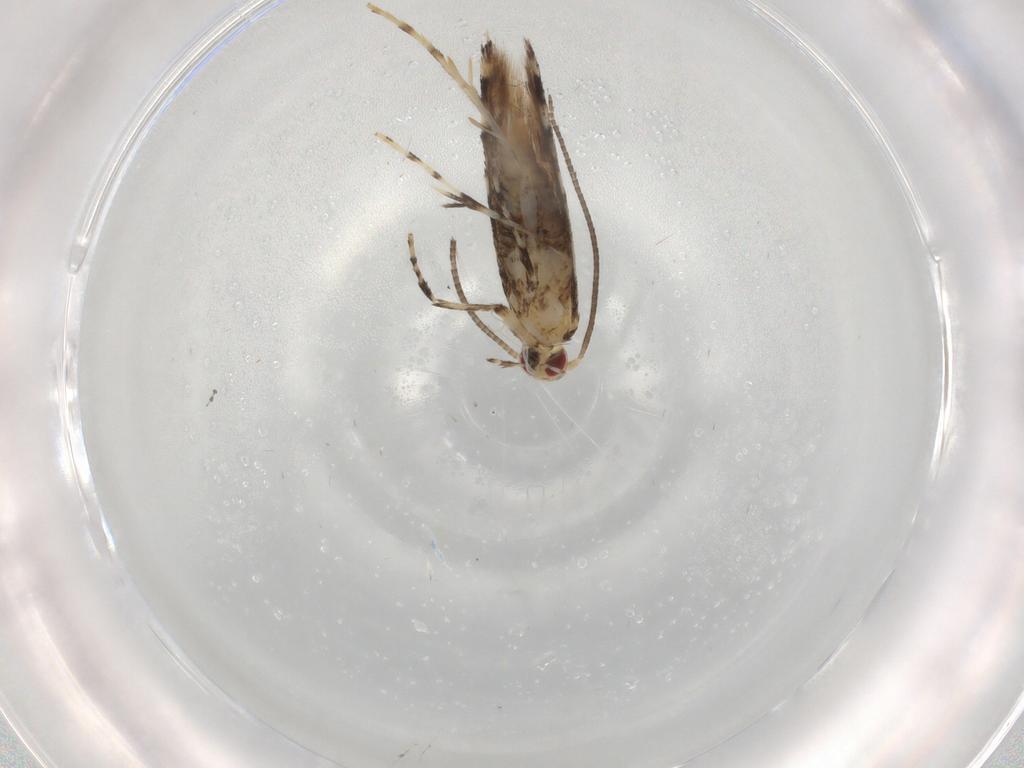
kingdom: Animalia
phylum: Arthropoda
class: Insecta
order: Lepidoptera
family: Gracillariidae
